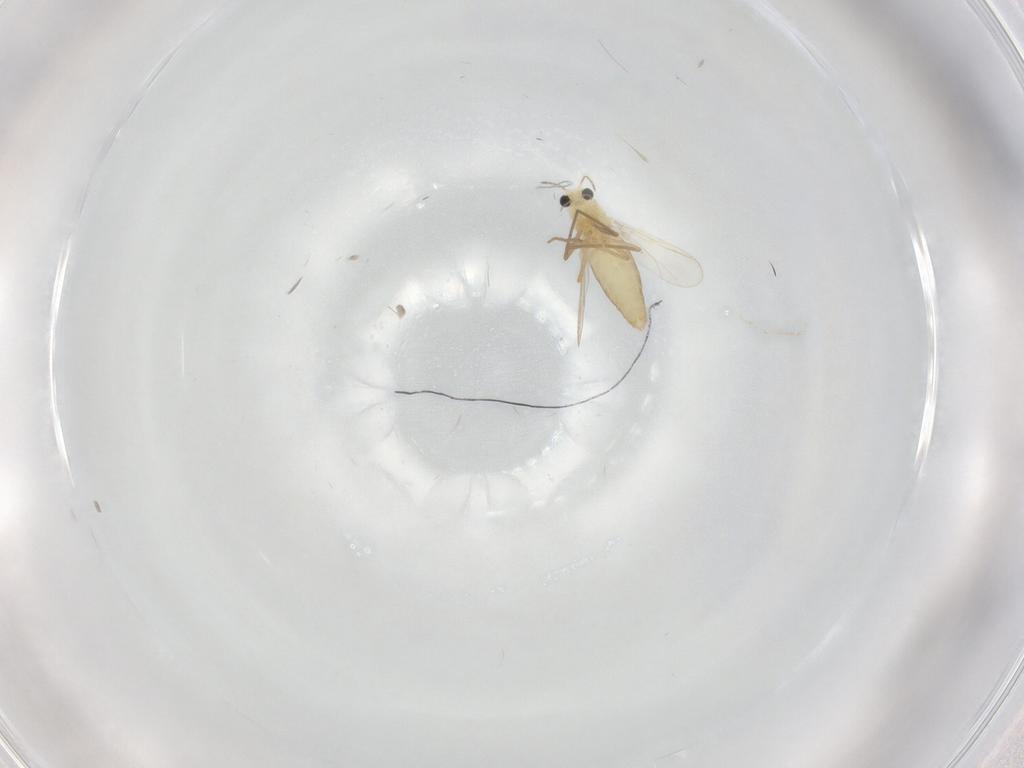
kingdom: Animalia
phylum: Arthropoda
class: Insecta
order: Diptera
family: Chironomidae
